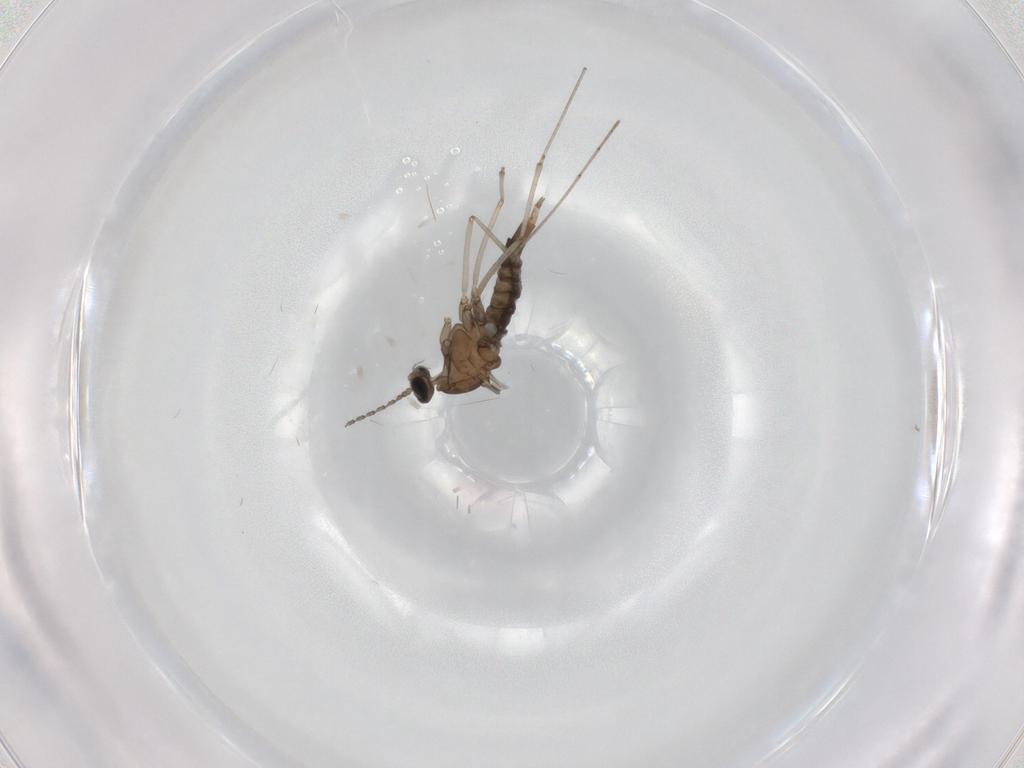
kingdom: Animalia
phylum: Arthropoda
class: Insecta
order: Diptera
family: Cecidomyiidae
